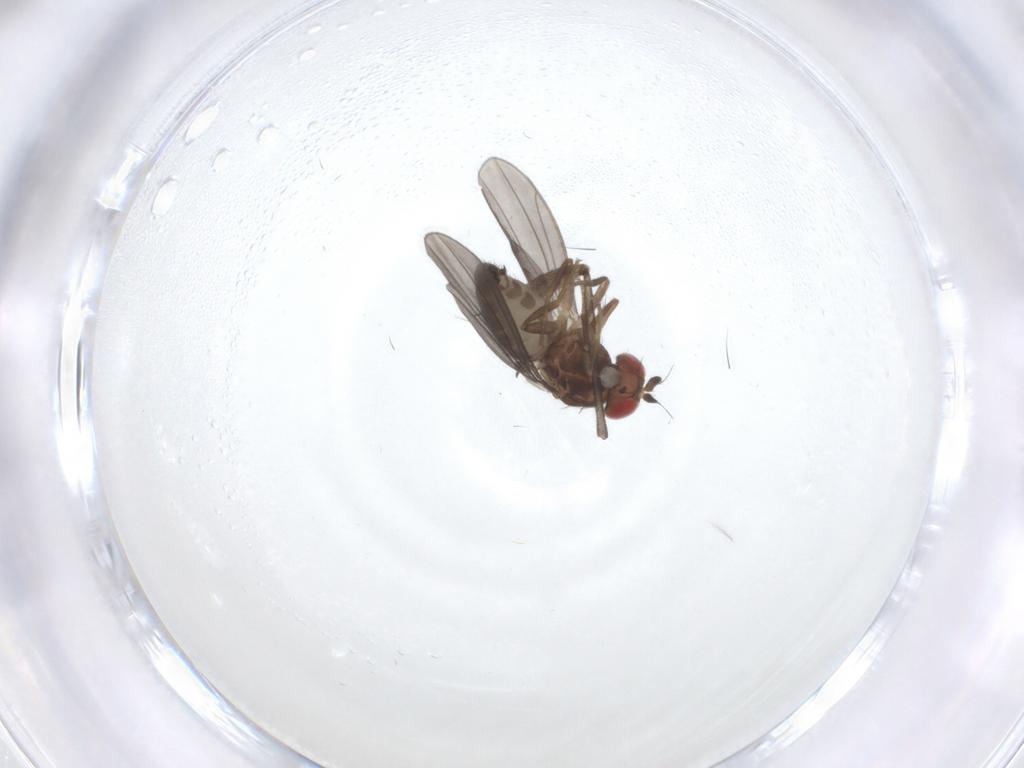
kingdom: Animalia
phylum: Arthropoda
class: Insecta
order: Diptera
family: Drosophilidae
